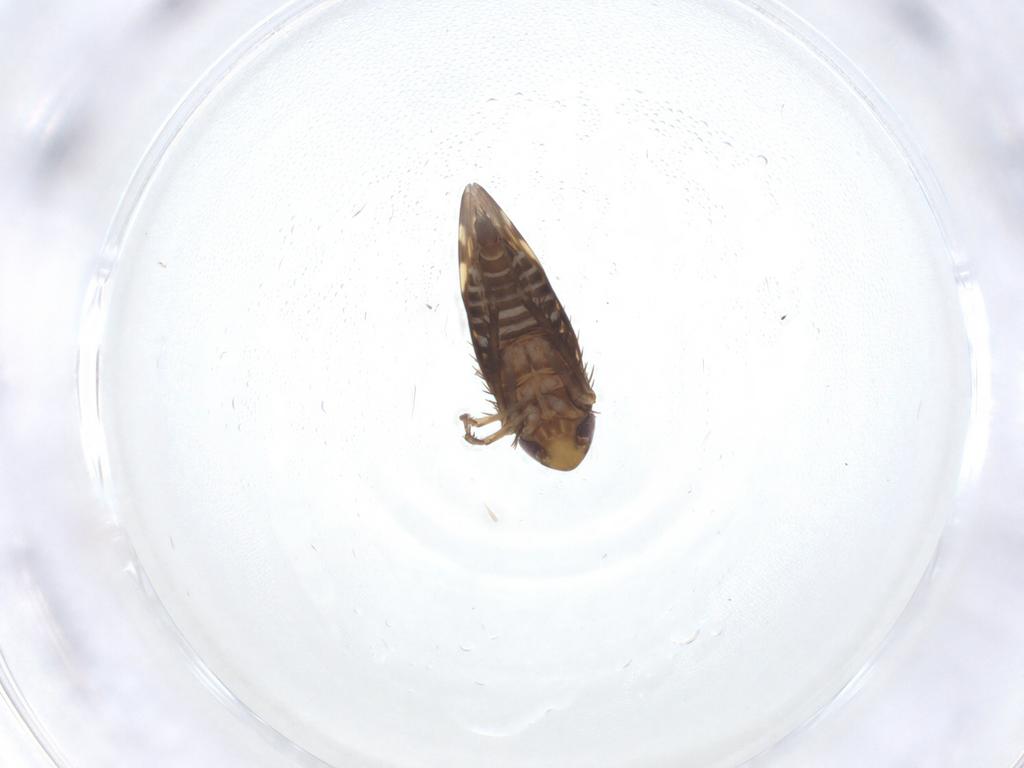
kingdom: Animalia
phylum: Arthropoda
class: Insecta
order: Hemiptera
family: Cicadellidae
